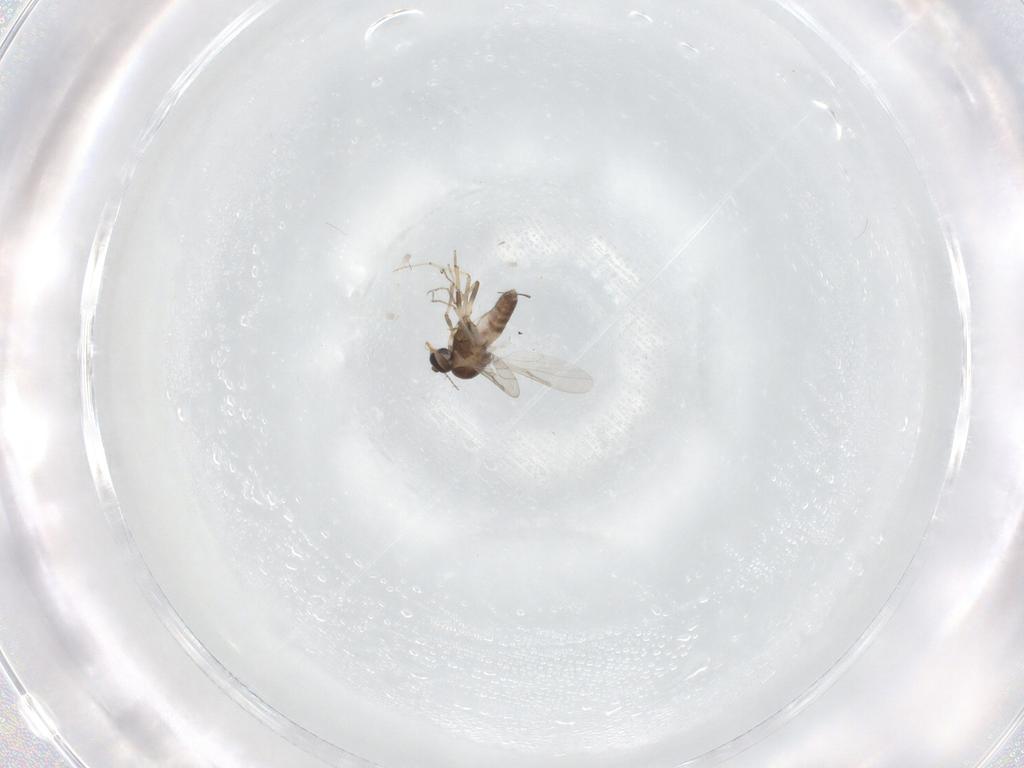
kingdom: Animalia
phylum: Arthropoda
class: Insecta
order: Diptera
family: Ceratopogonidae
